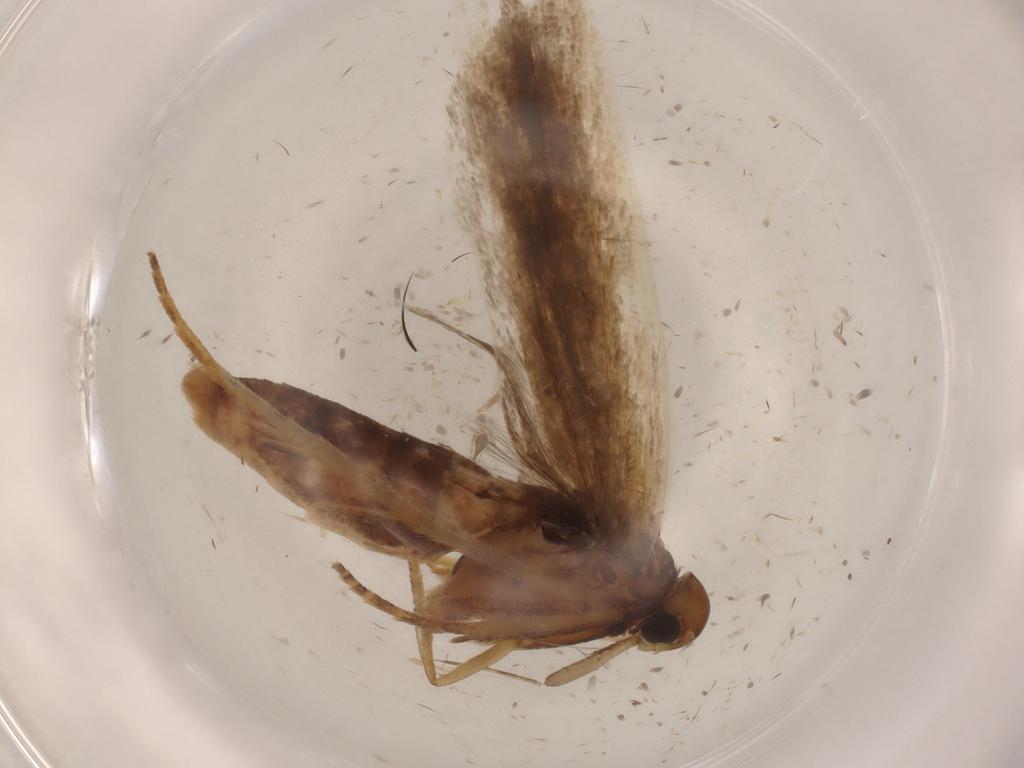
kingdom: Animalia
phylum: Arthropoda
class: Insecta
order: Lepidoptera
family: Gelechiidae
